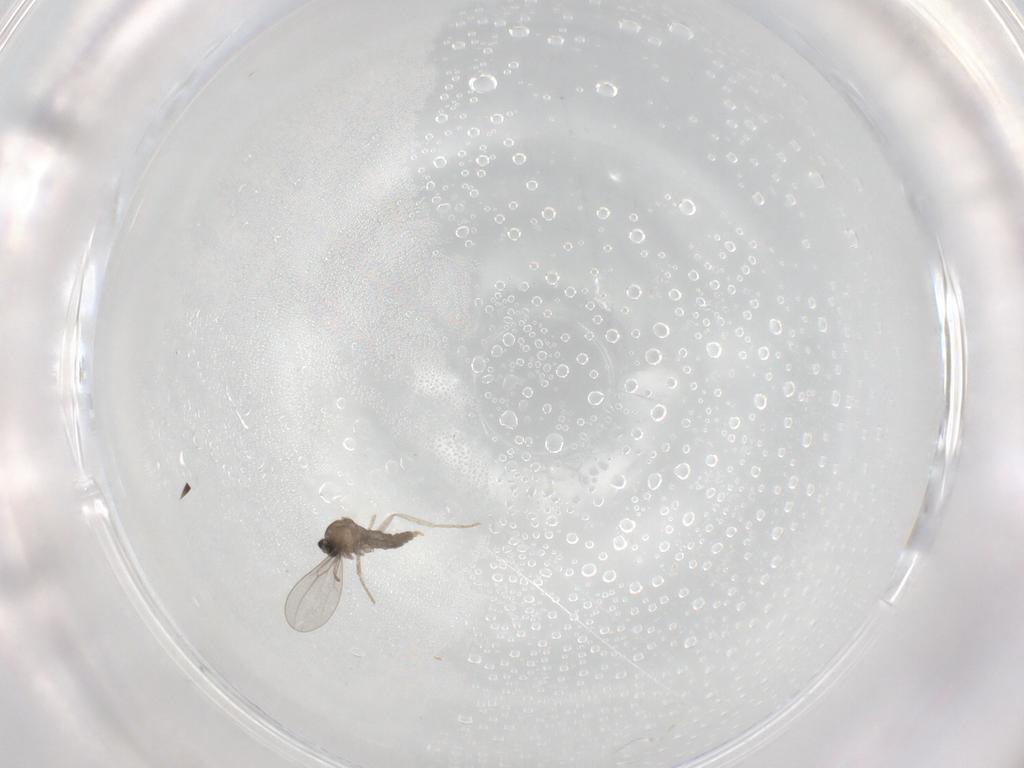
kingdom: Animalia
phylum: Arthropoda
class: Insecta
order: Diptera
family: Cecidomyiidae
